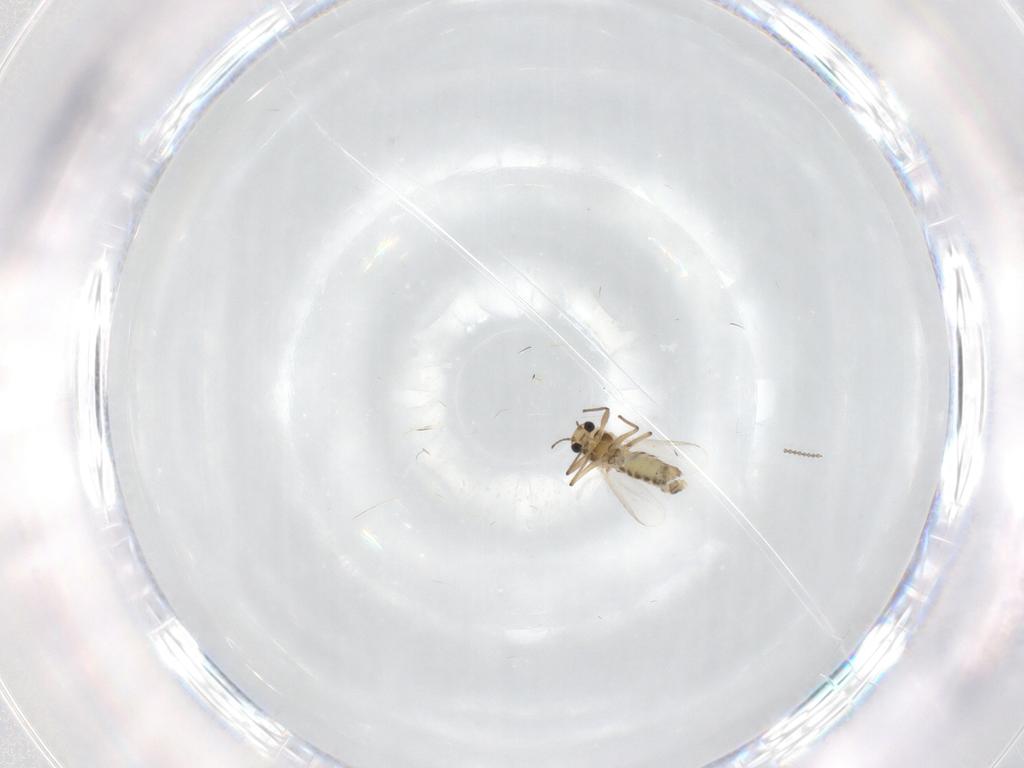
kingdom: Animalia
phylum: Arthropoda
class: Insecta
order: Diptera
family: Chironomidae
